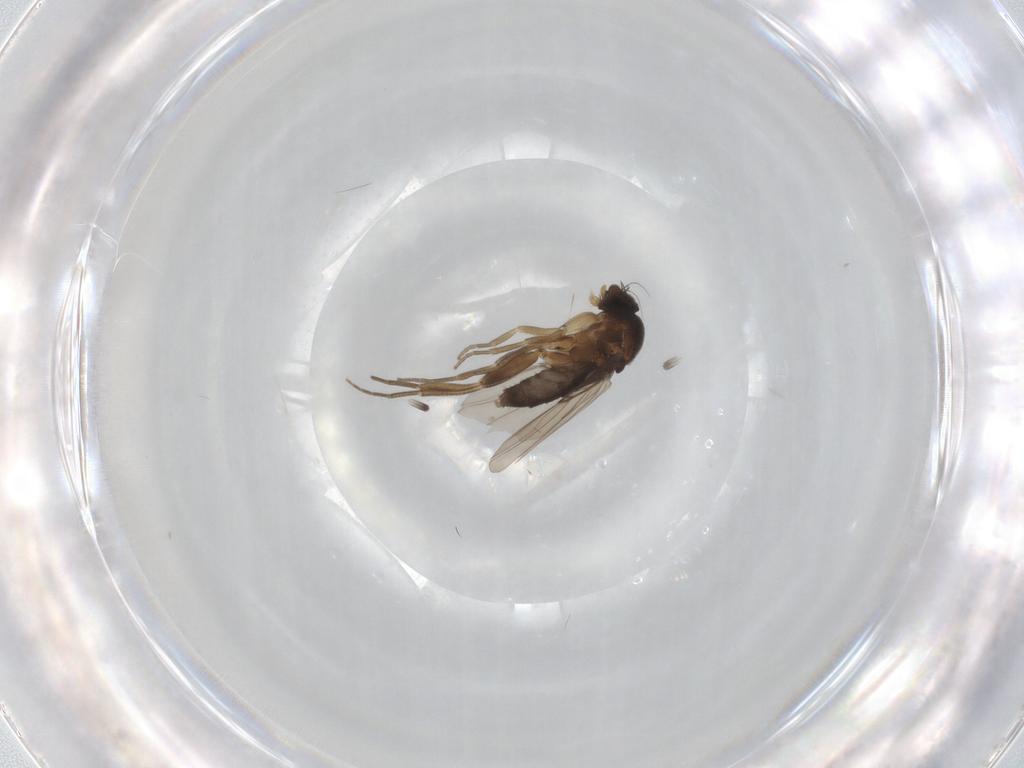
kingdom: Animalia
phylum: Arthropoda
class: Insecta
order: Diptera
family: Phoridae
